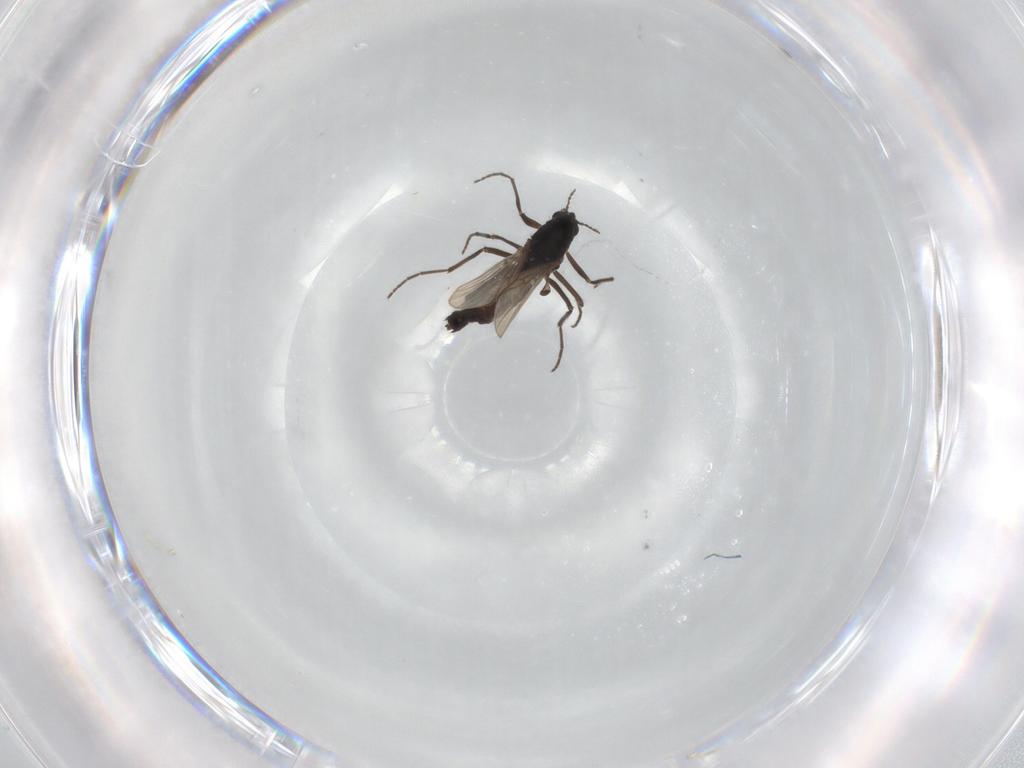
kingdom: Animalia
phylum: Arthropoda
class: Insecta
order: Diptera
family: Chironomidae
